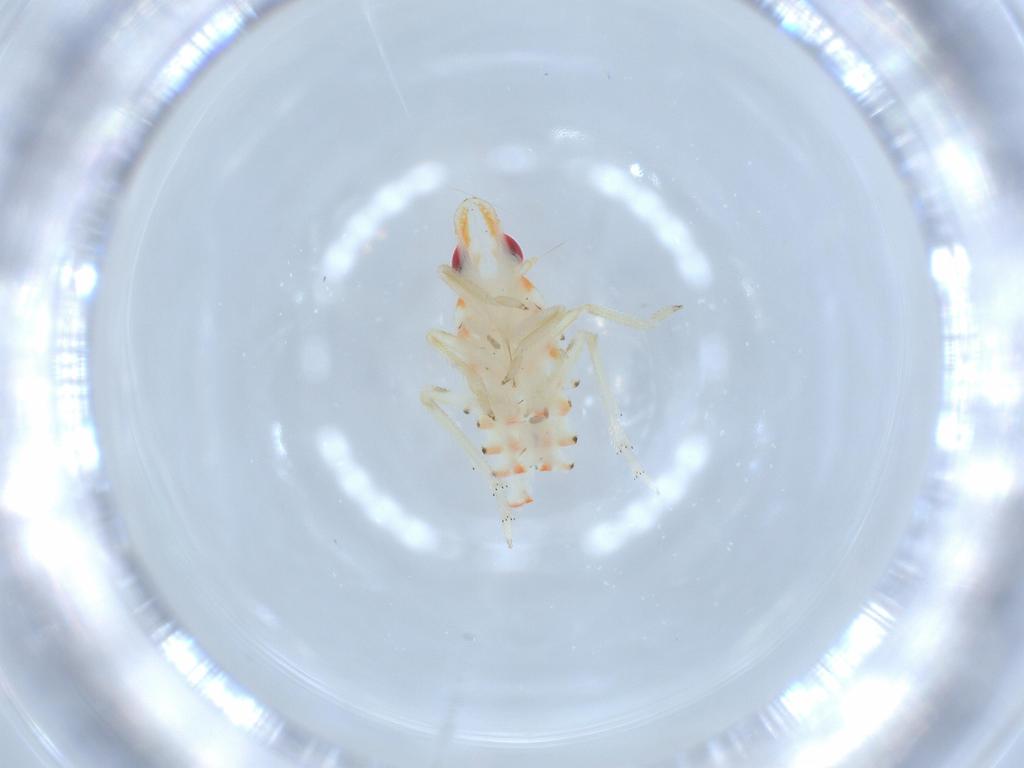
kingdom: Animalia
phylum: Arthropoda
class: Insecta
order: Hemiptera
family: Tropiduchidae
